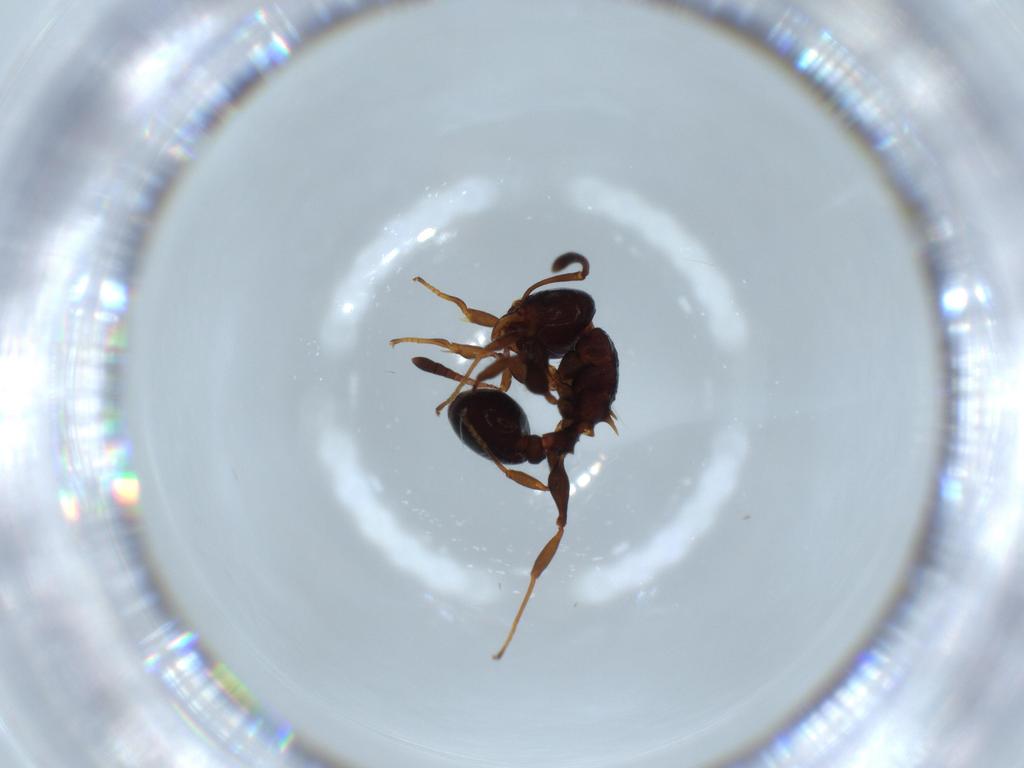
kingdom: Animalia
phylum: Arthropoda
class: Insecta
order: Hymenoptera
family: Formicidae
